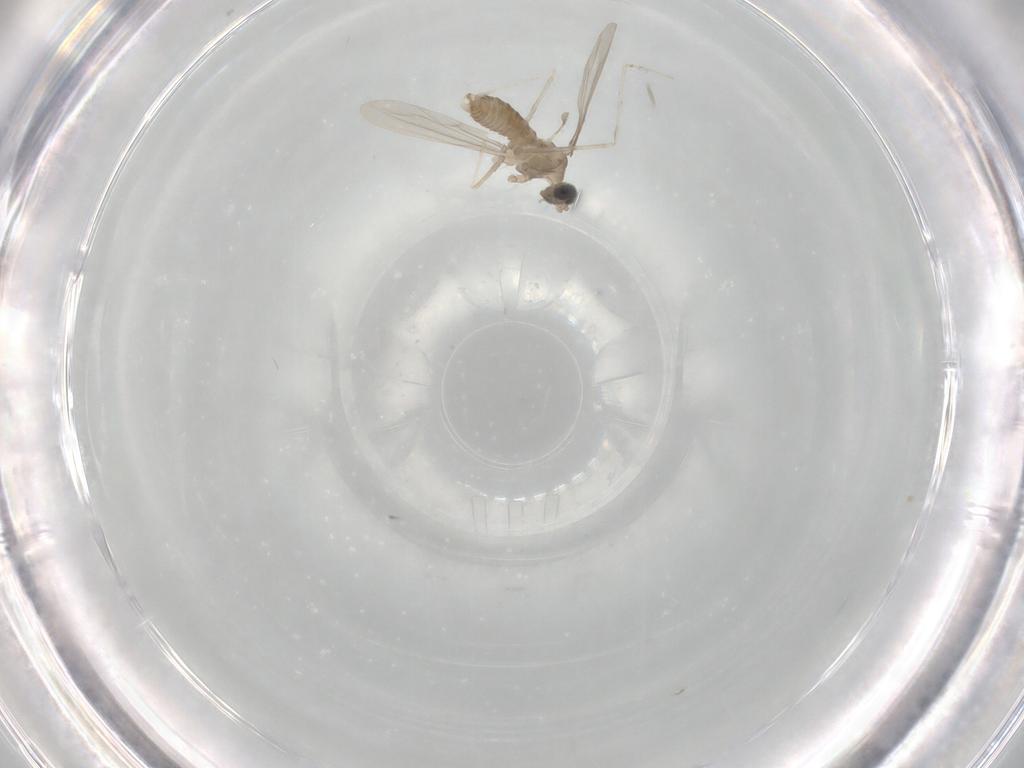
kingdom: Animalia
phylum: Arthropoda
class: Insecta
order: Diptera
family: Cecidomyiidae
